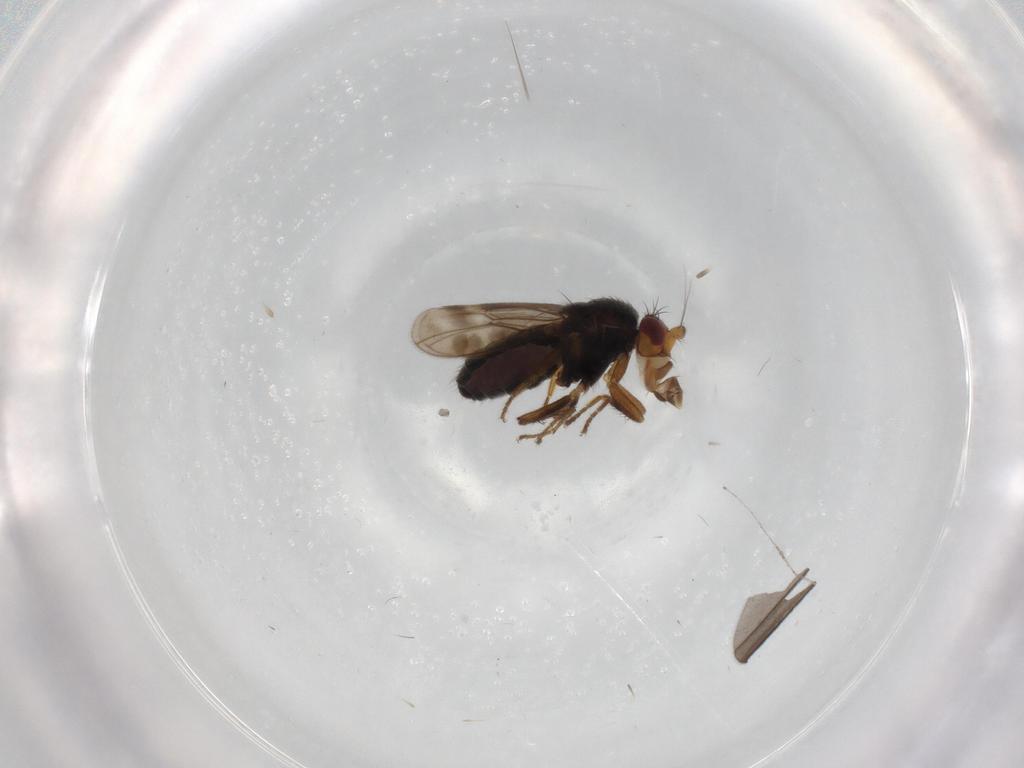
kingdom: Animalia
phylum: Arthropoda
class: Insecta
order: Diptera
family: Sphaeroceridae
